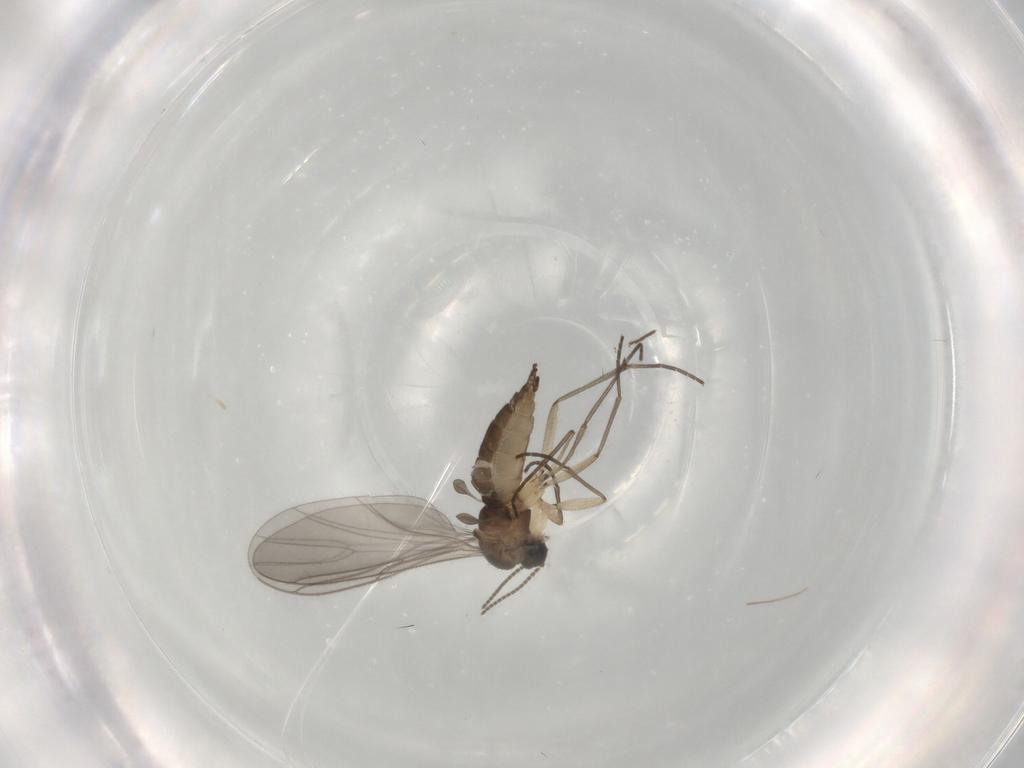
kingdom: Animalia
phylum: Arthropoda
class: Insecta
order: Diptera
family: Sciaridae
